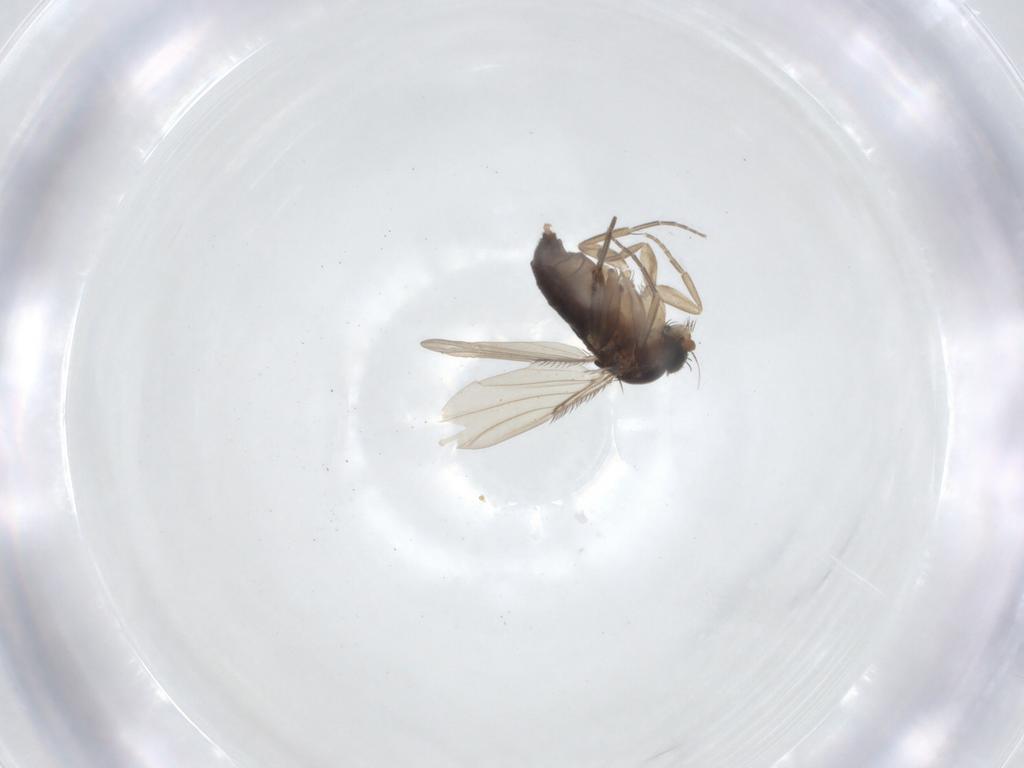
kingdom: Animalia
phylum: Arthropoda
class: Insecta
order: Diptera
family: Phoridae
